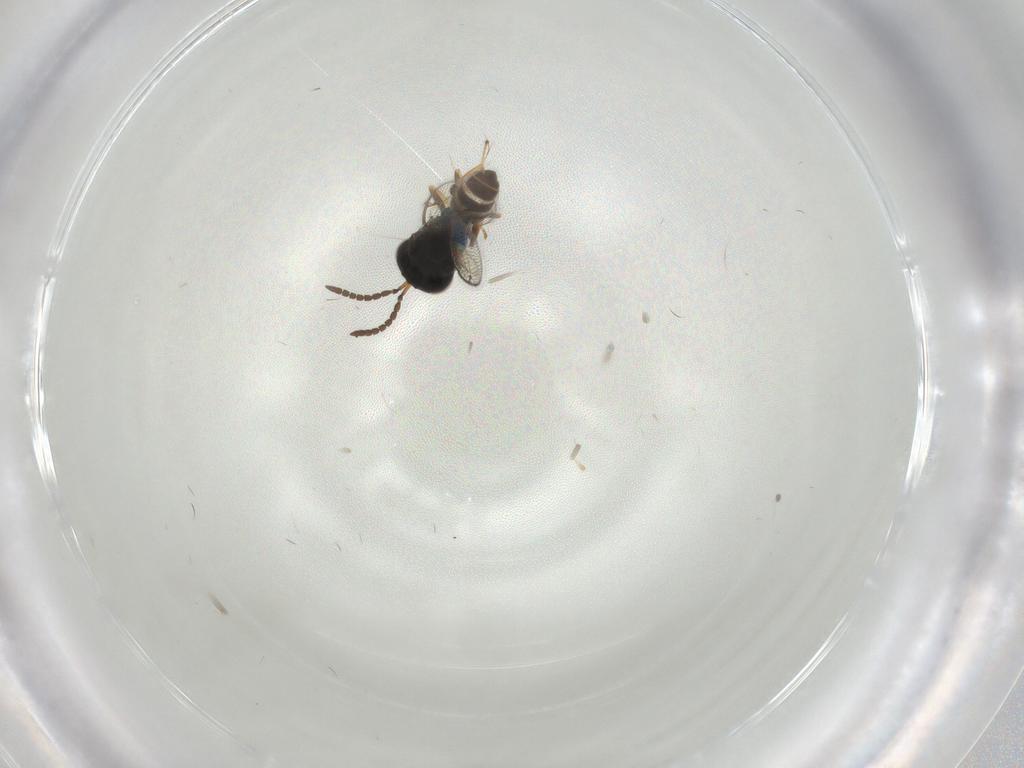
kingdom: Animalia
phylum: Arthropoda
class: Insecta
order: Hymenoptera
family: Pteromalidae
